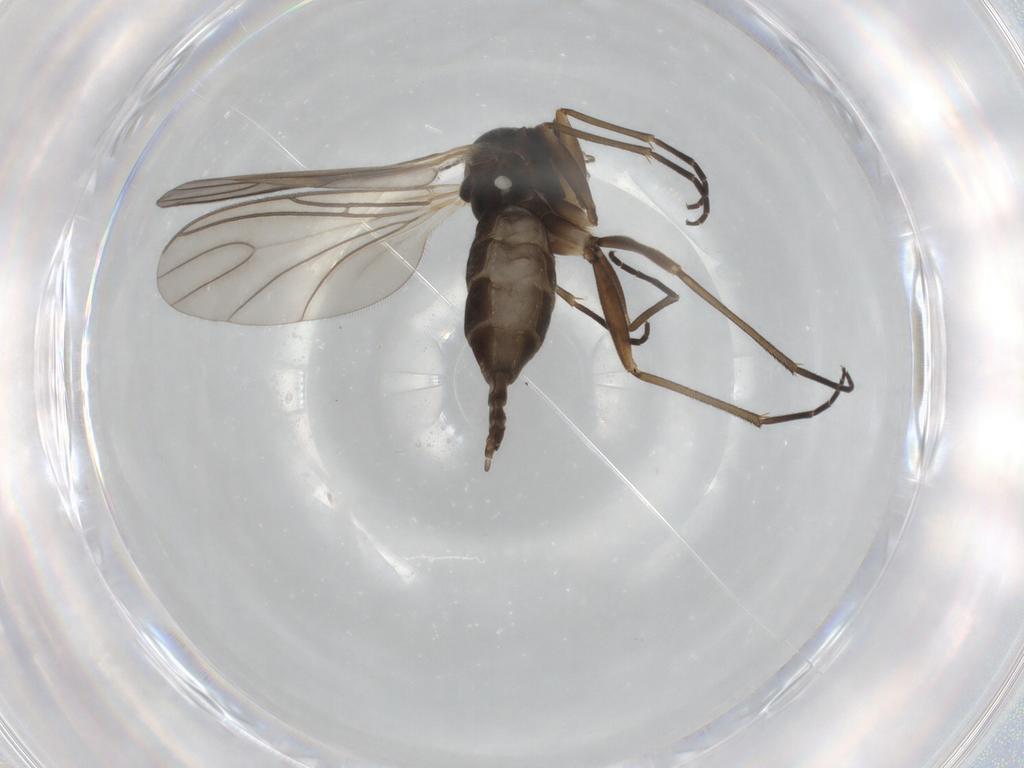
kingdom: Animalia
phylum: Arthropoda
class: Insecta
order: Diptera
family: Sciaridae
